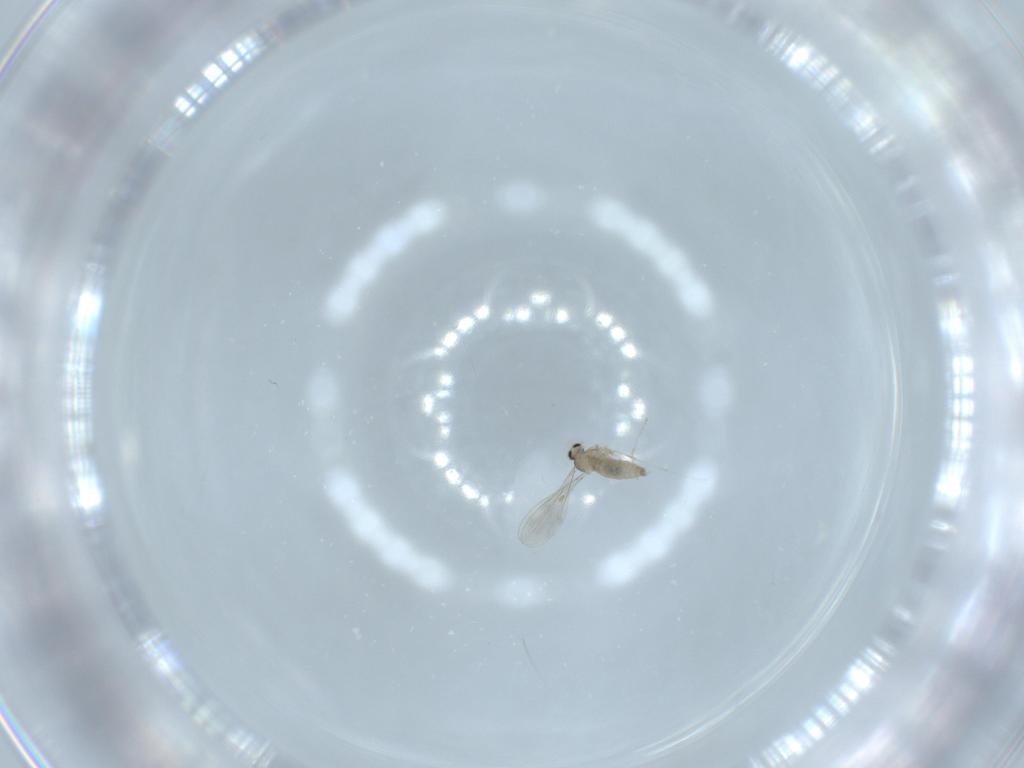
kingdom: Animalia
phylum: Arthropoda
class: Insecta
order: Diptera
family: Cecidomyiidae
